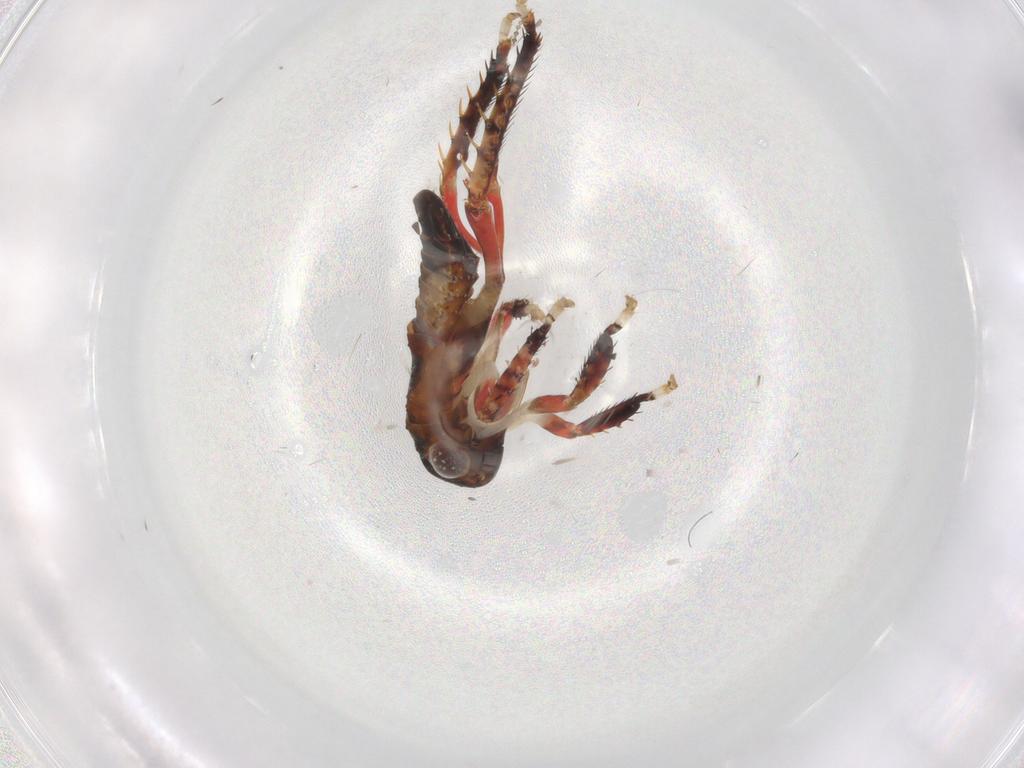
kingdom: Animalia
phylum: Arthropoda
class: Insecta
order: Hemiptera
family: Cicadellidae
